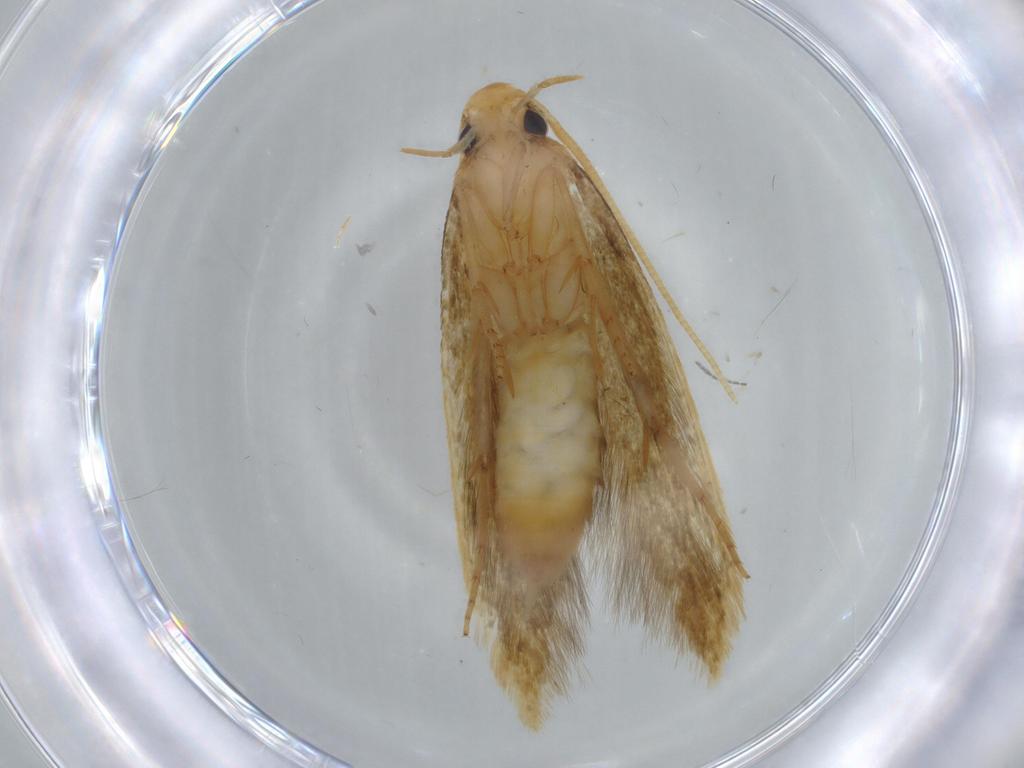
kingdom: Animalia
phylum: Arthropoda
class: Insecta
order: Lepidoptera
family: Tineidae
